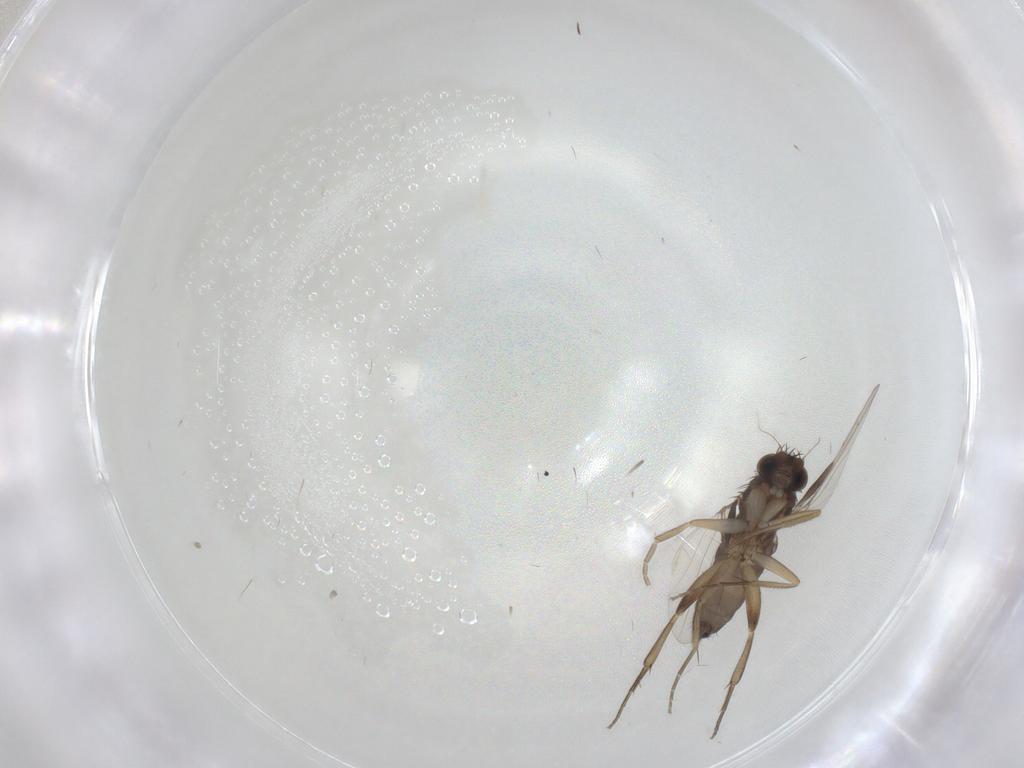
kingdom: Animalia
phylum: Arthropoda
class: Insecta
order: Diptera
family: Phoridae
